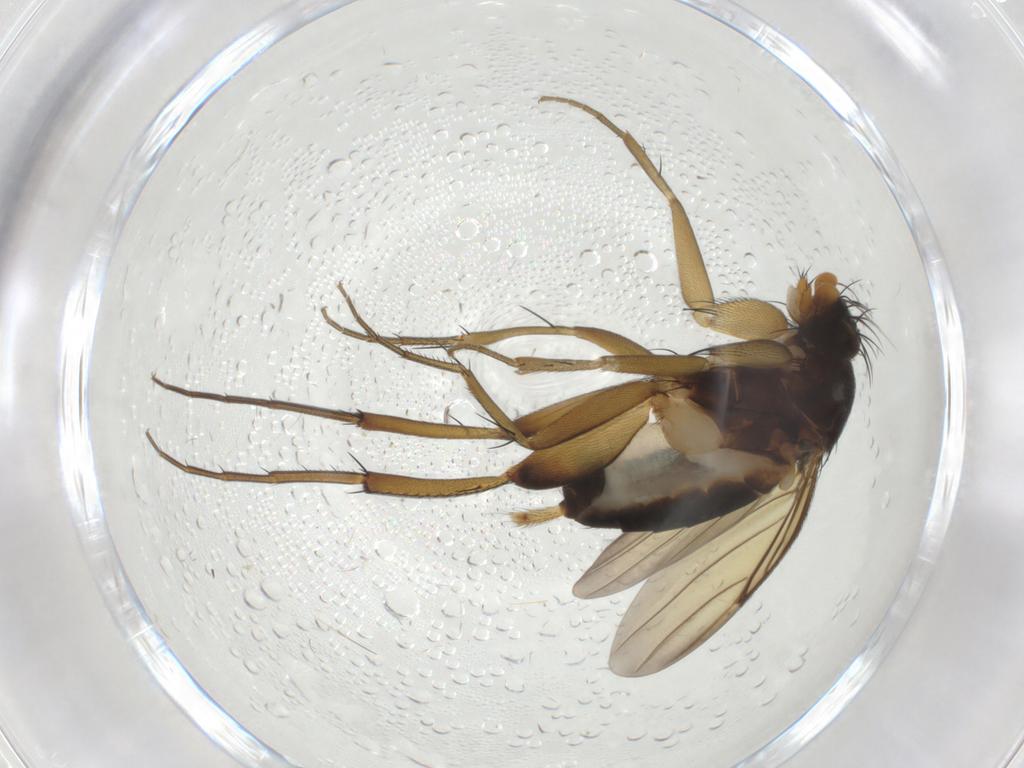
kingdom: Animalia
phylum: Arthropoda
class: Insecta
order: Diptera
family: Phoridae
